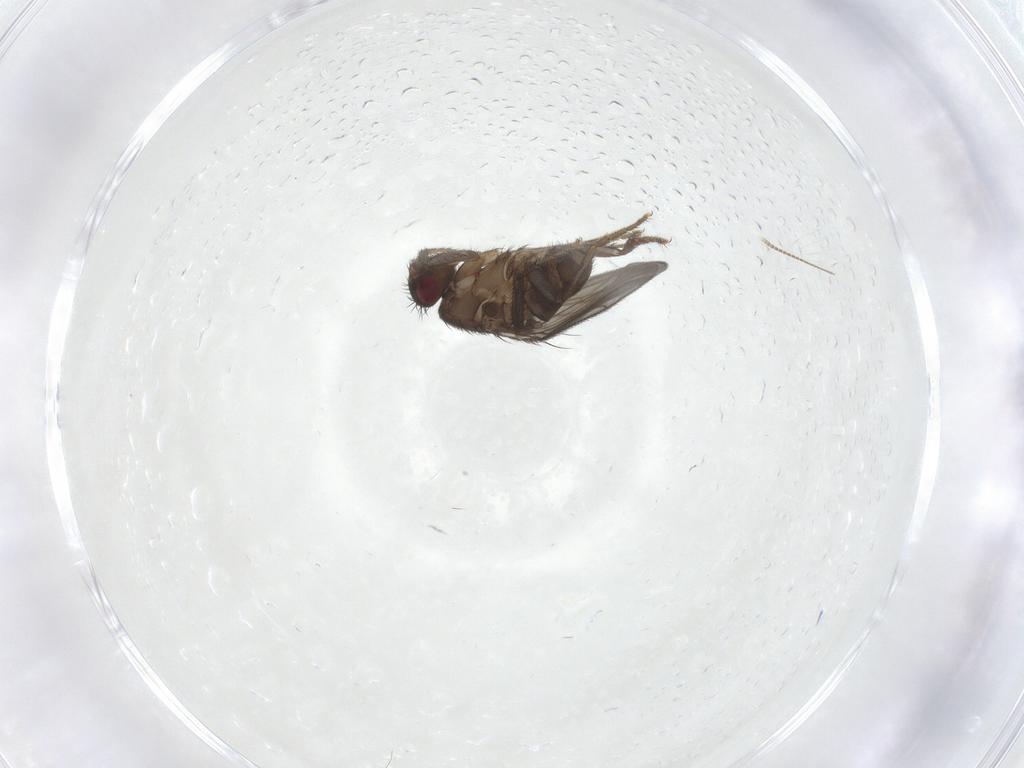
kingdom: Animalia
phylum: Arthropoda
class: Insecta
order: Diptera
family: Sphaeroceridae
